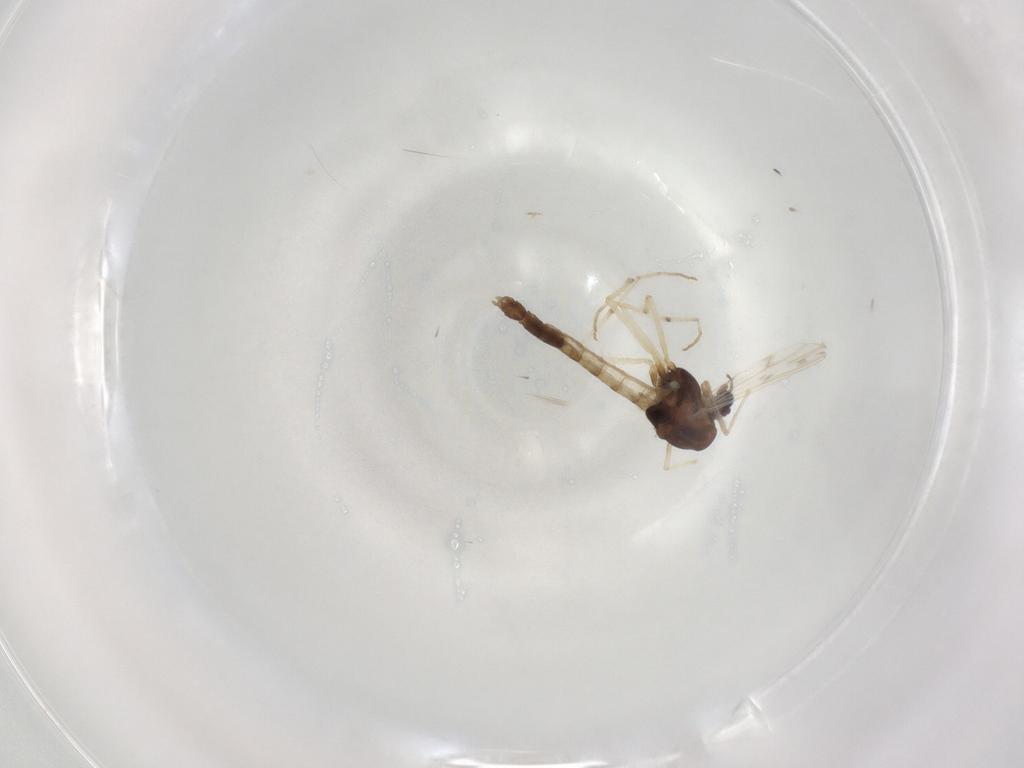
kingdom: Animalia
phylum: Arthropoda
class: Insecta
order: Diptera
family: Chironomidae
